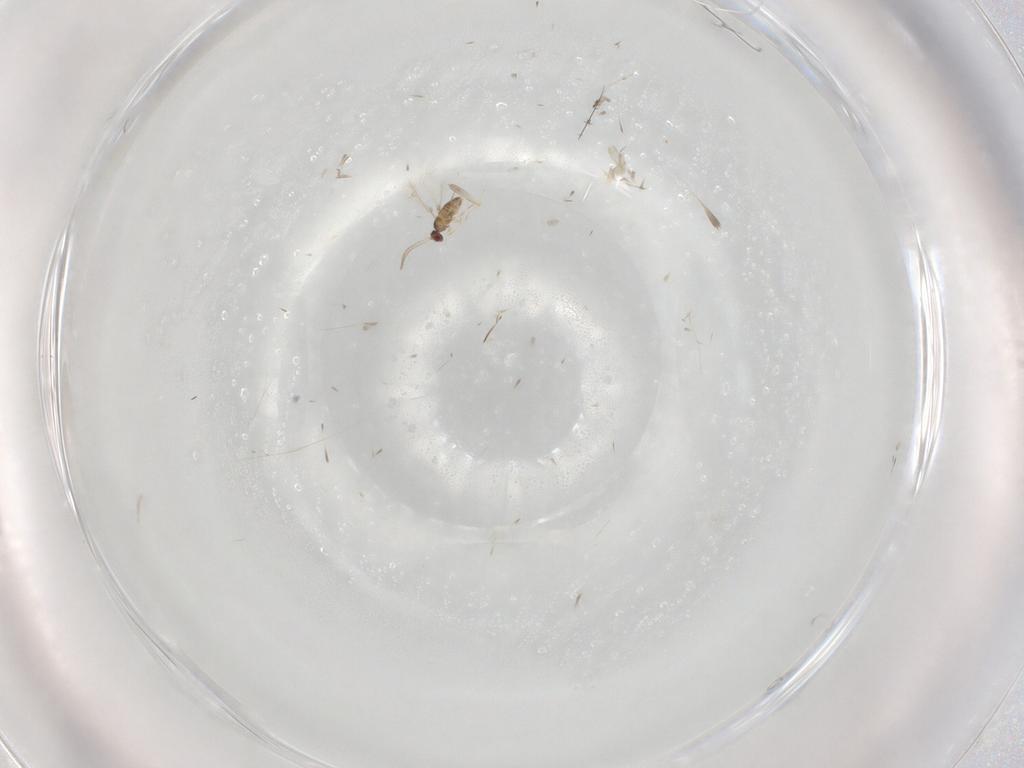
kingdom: Animalia
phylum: Arthropoda
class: Insecta
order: Hymenoptera
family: Mymaridae
